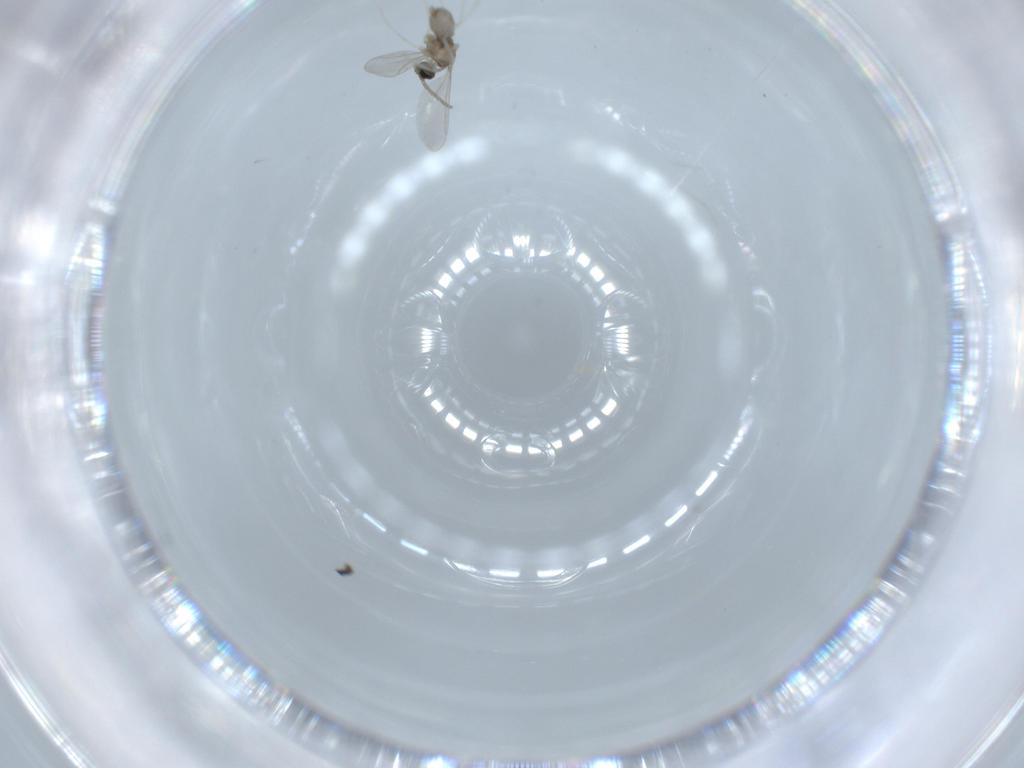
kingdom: Animalia
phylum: Arthropoda
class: Insecta
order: Diptera
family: Cecidomyiidae
